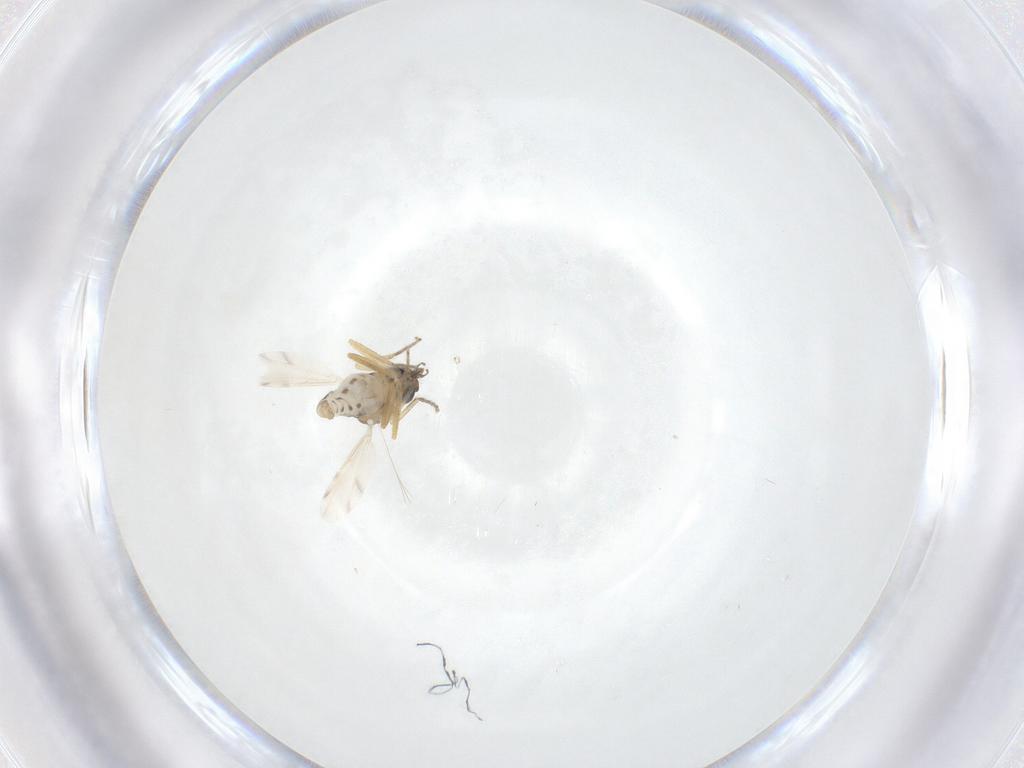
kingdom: Animalia
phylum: Arthropoda
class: Insecta
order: Diptera
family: Ceratopogonidae
